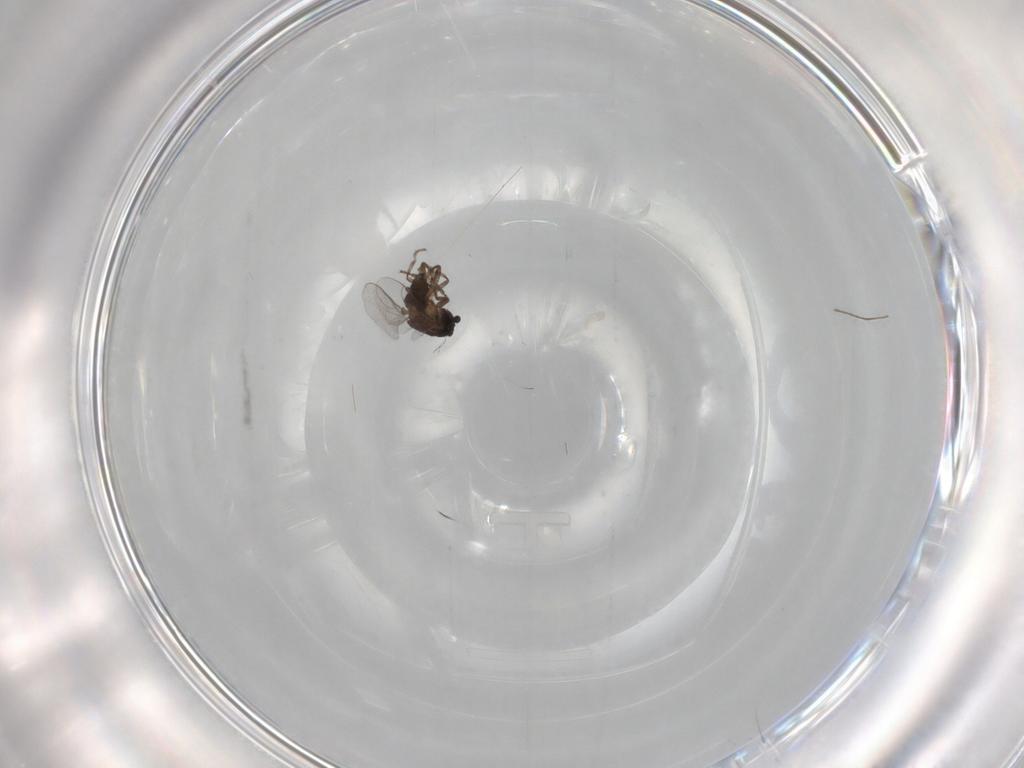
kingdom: Animalia
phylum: Arthropoda
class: Insecta
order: Diptera
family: Sphaeroceridae
